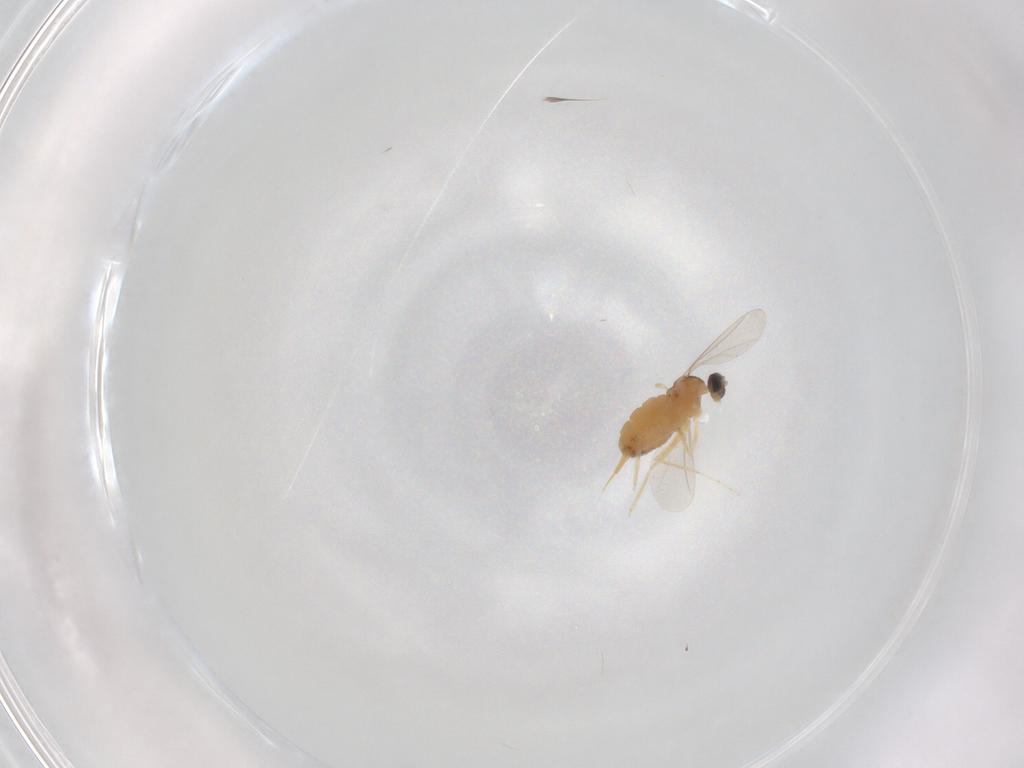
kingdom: Animalia
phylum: Arthropoda
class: Insecta
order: Diptera
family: Cecidomyiidae
